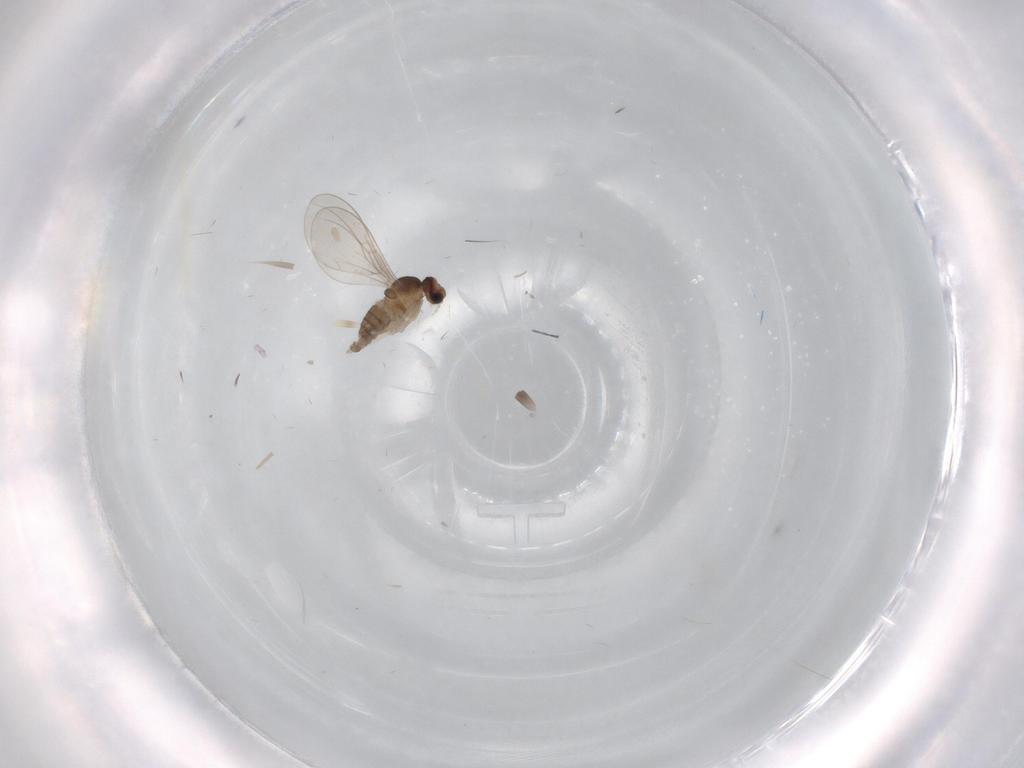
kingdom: Animalia
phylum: Arthropoda
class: Insecta
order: Diptera
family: Cecidomyiidae
